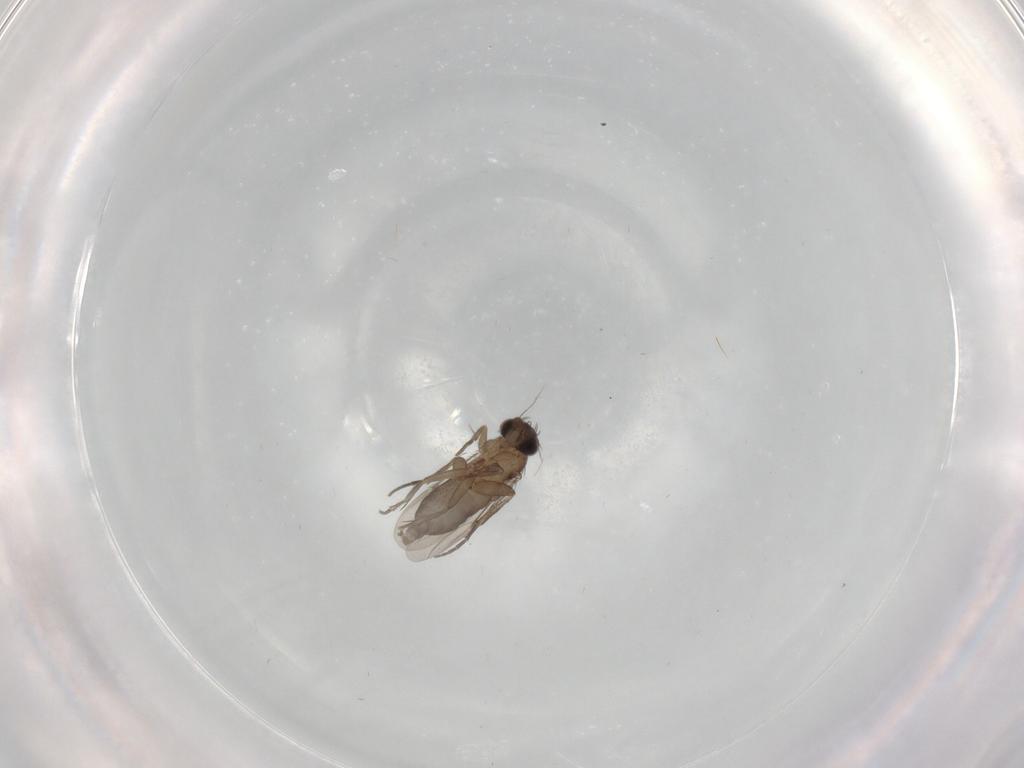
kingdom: Animalia
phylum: Arthropoda
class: Insecta
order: Diptera
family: Phoridae
